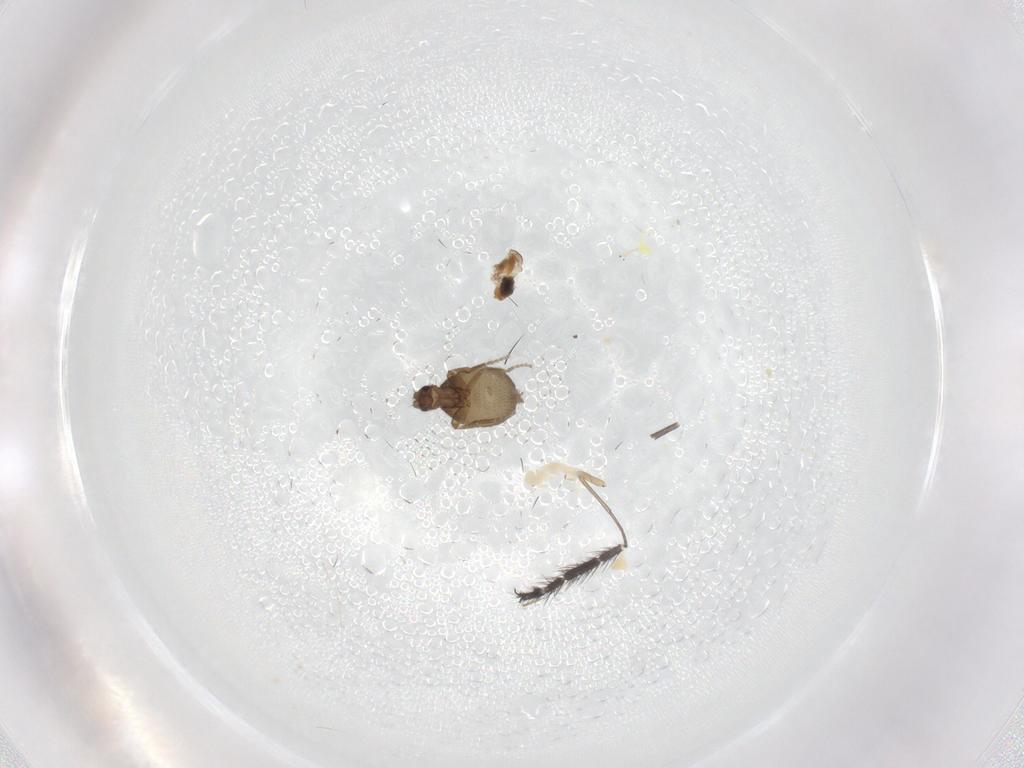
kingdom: Animalia
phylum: Arthropoda
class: Insecta
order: Diptera
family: Phoridae
